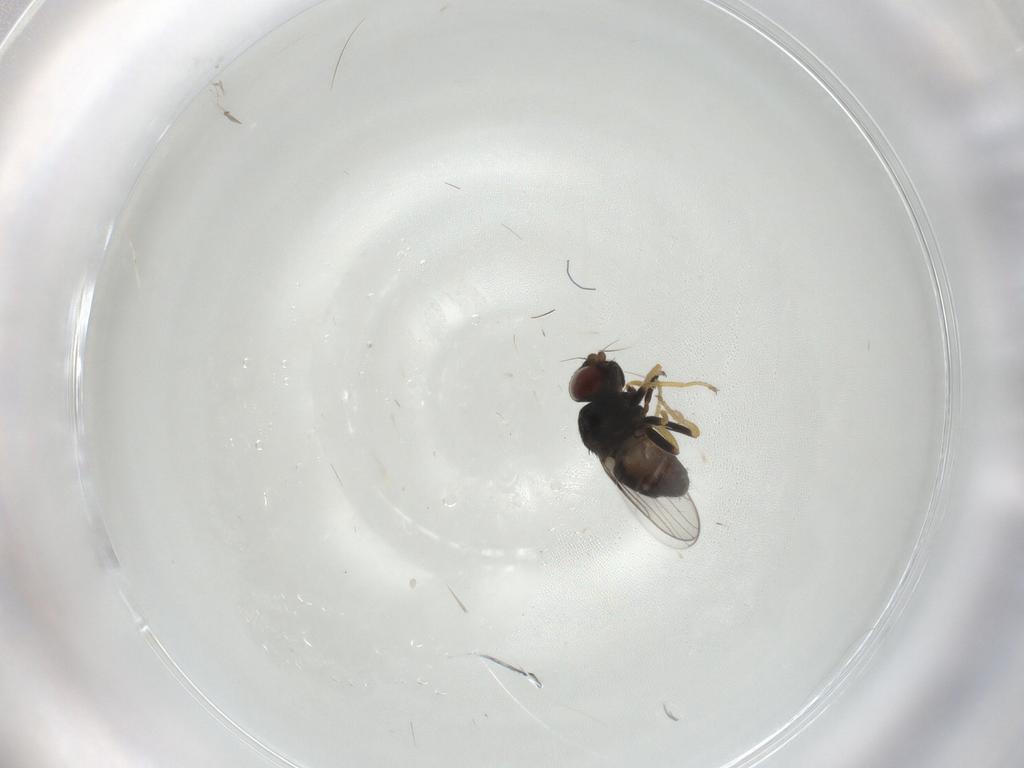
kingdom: Animalia
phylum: Arthropoda
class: Insecta
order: Diptera
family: Chloropidae
